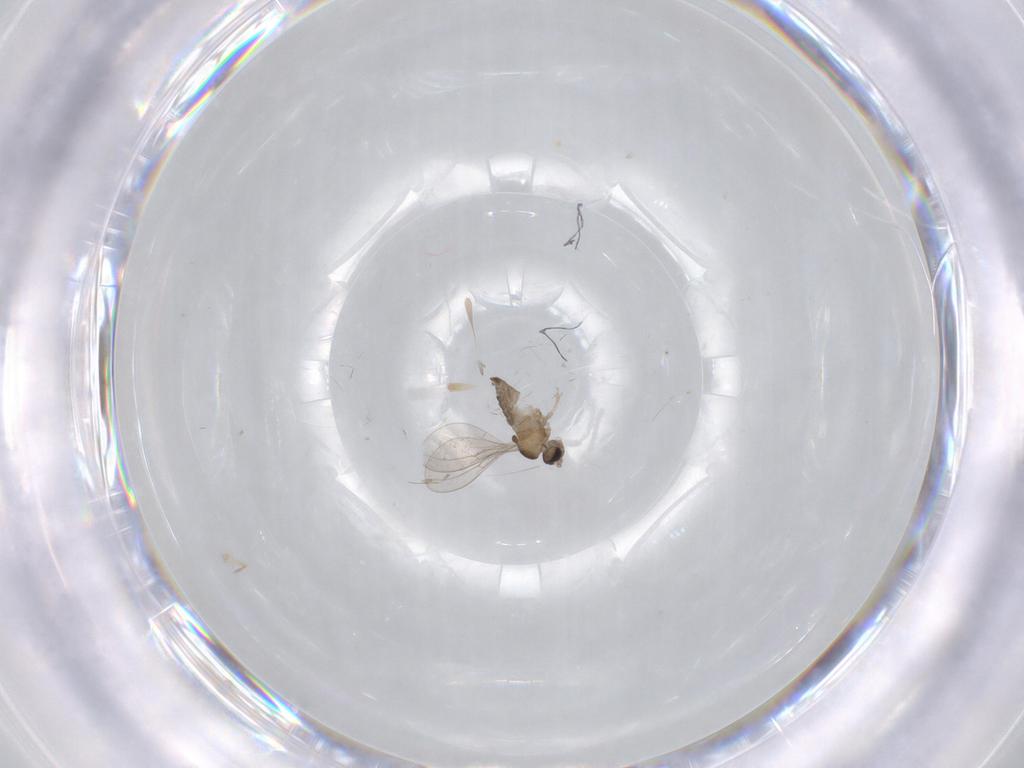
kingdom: Animalia
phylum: Arthropoda
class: Insecta
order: Diptera
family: Cecidomyiidae
